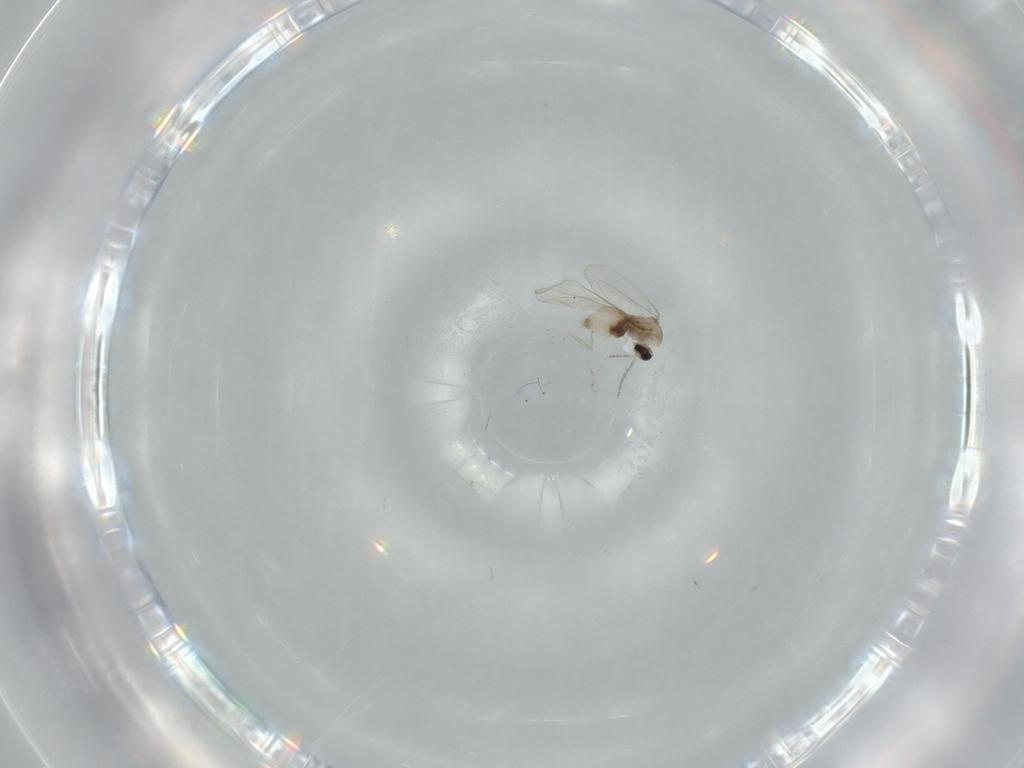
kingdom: Animalia
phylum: Arthropoda
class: Insecta
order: Diptera
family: Cecidomyiidae
